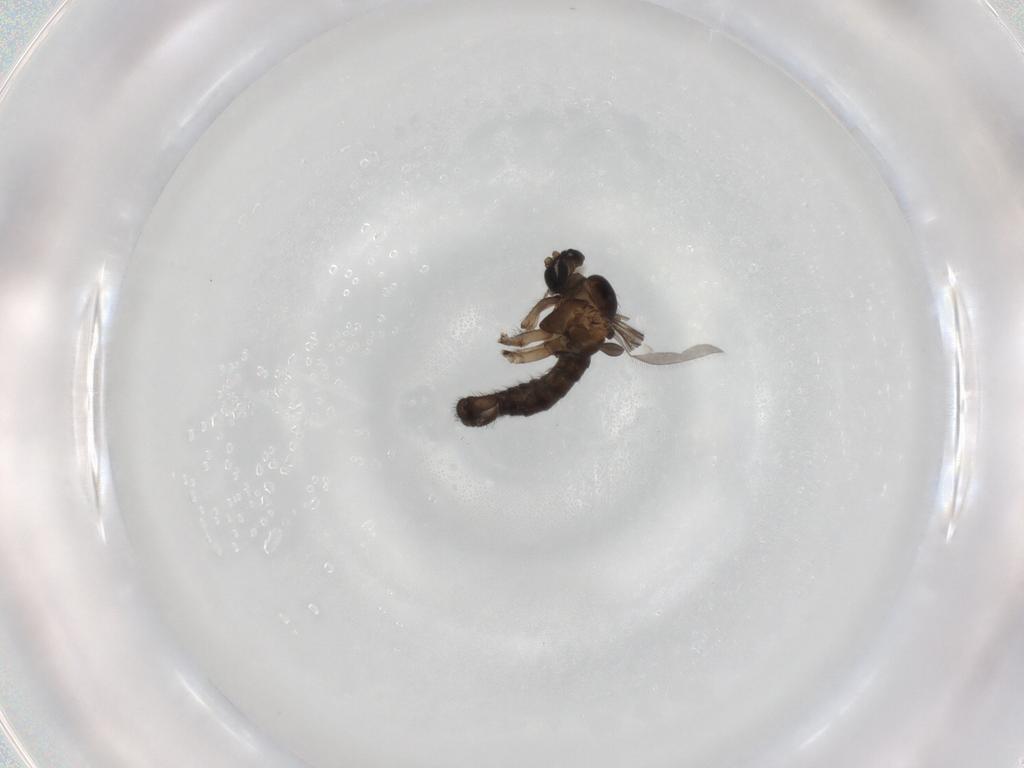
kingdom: Animalia
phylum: Arthropoda
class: Insecta
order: Diptera
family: Sciaridae
